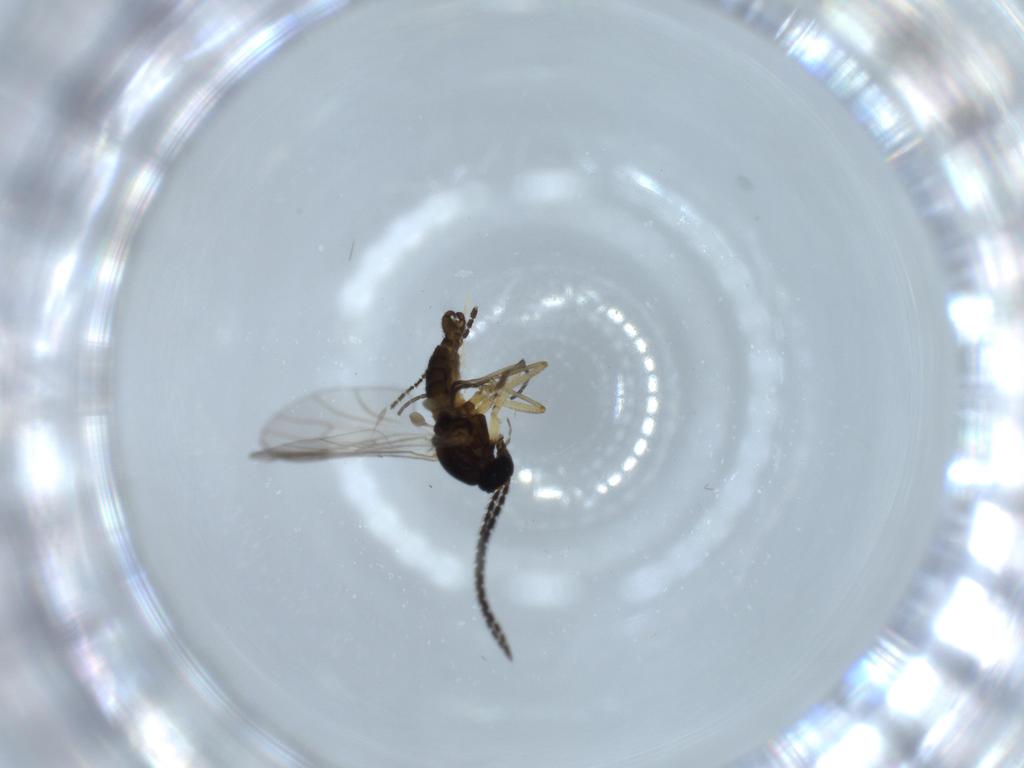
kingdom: Animalia
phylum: Arthropoda
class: Insecta
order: Diptera
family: Sciaridae
